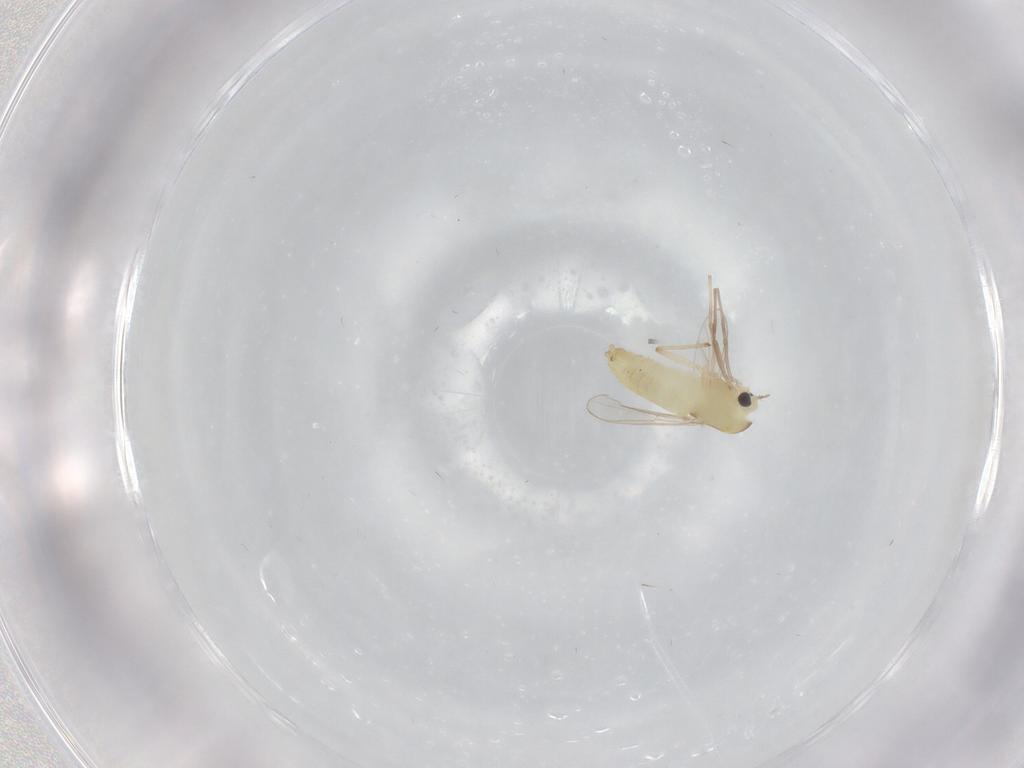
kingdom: Animalia
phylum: Arthropoda
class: Insecta
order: Diptera
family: Chironomidae
